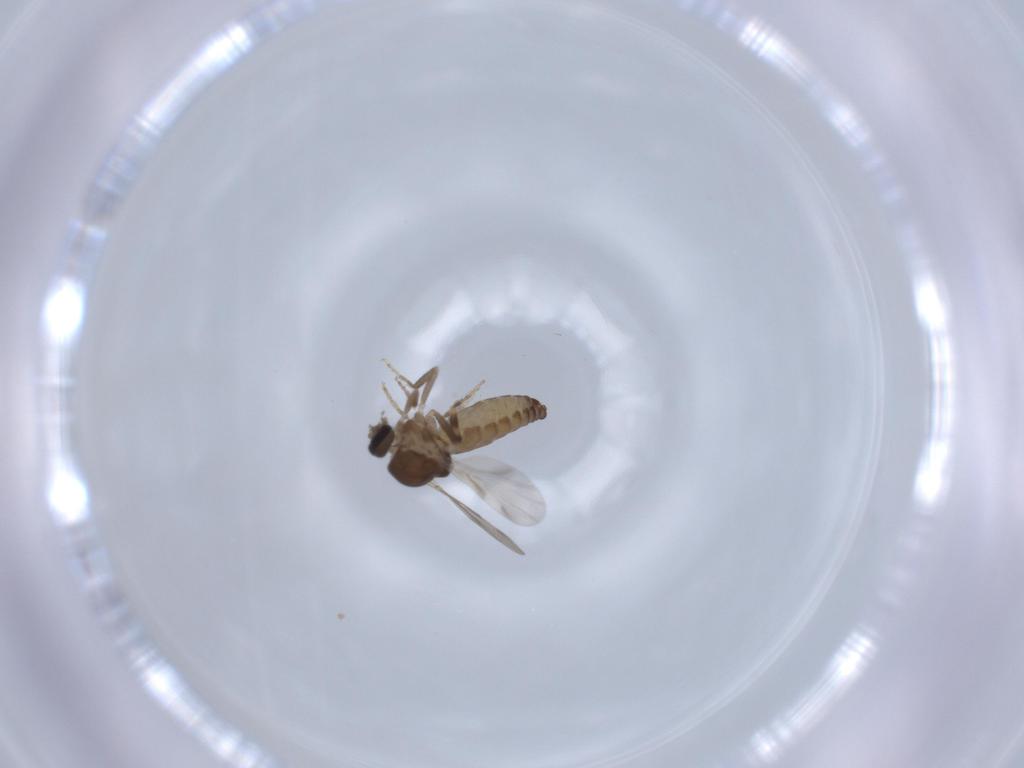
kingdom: Animalia
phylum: Arthropoda
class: Insecta
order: Diptera
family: Ceratopogonidae
